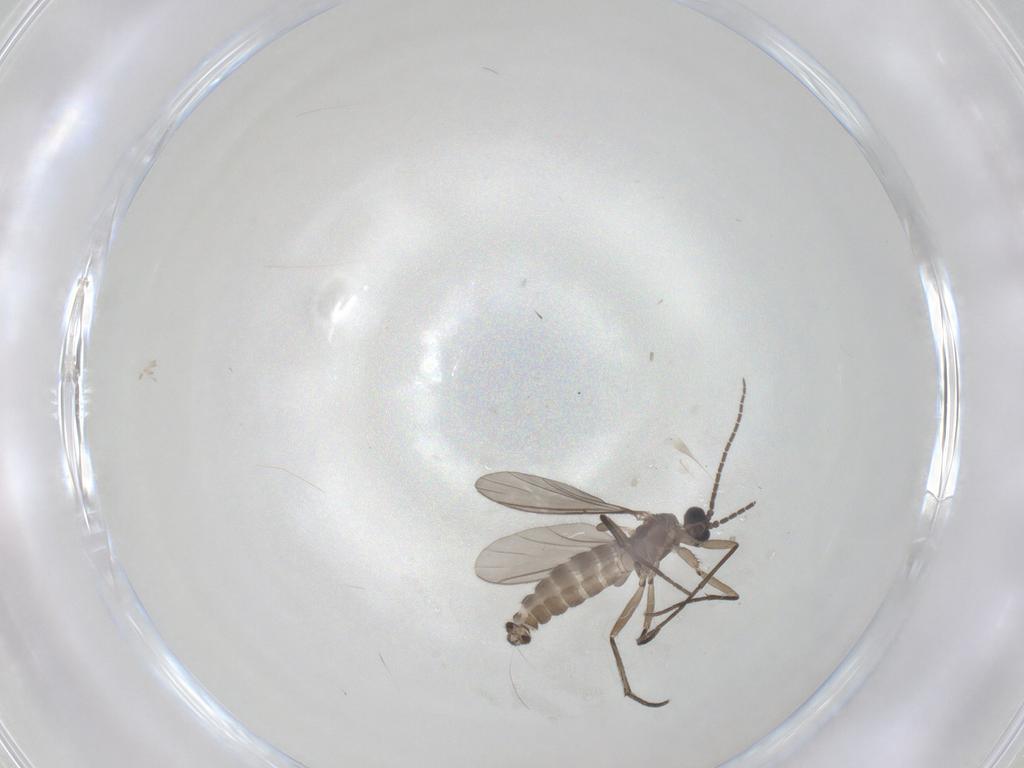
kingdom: Animalia
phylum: Arthropoda
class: Insecta
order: Diptera
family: Sciaridae
